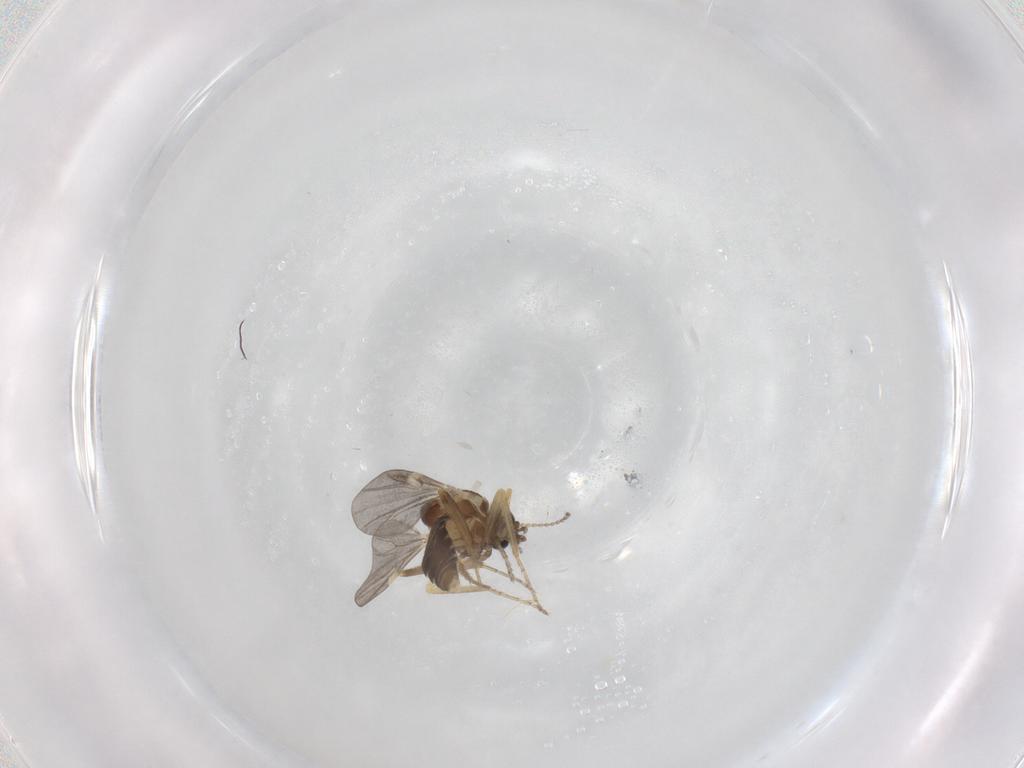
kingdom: Animalia
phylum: Arthropoda
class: Insecta
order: Diptera
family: Ceratopogonidae
